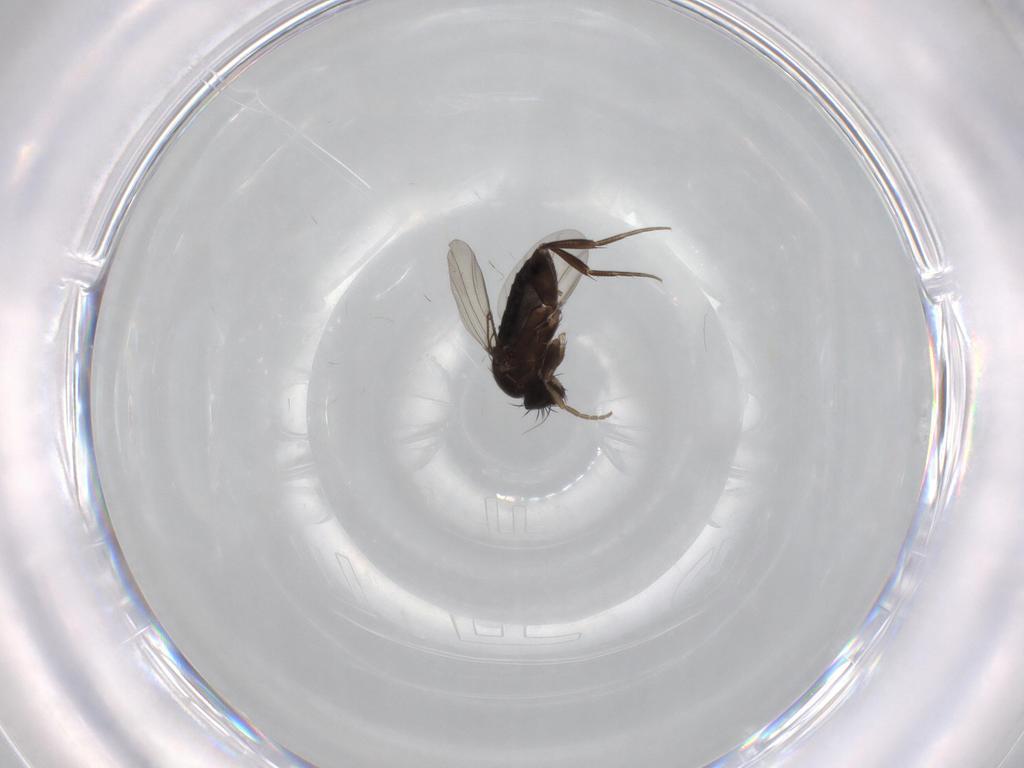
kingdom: Animalia
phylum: Arthropoda
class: Insecta
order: Diptera
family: Phoridae
